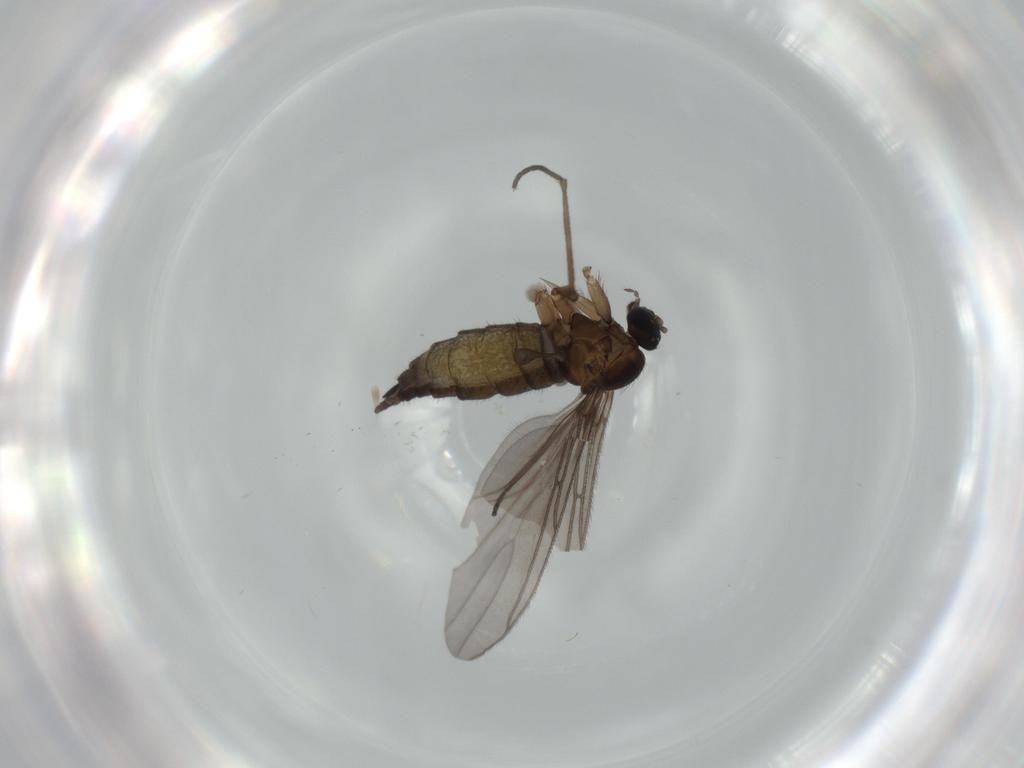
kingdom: Animalia
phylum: Arthropoda
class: Insecta
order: Diptera
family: Sciaridae
